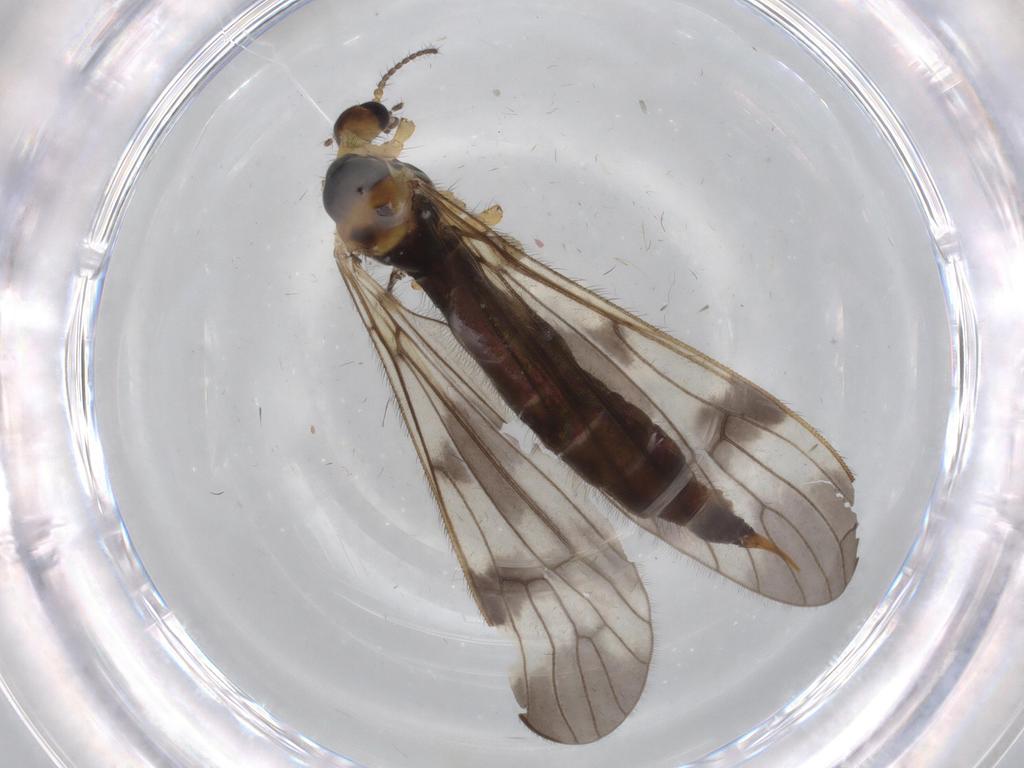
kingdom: Animalia
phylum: Arthropoda
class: Insecta
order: Diptera
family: Limoniidae
